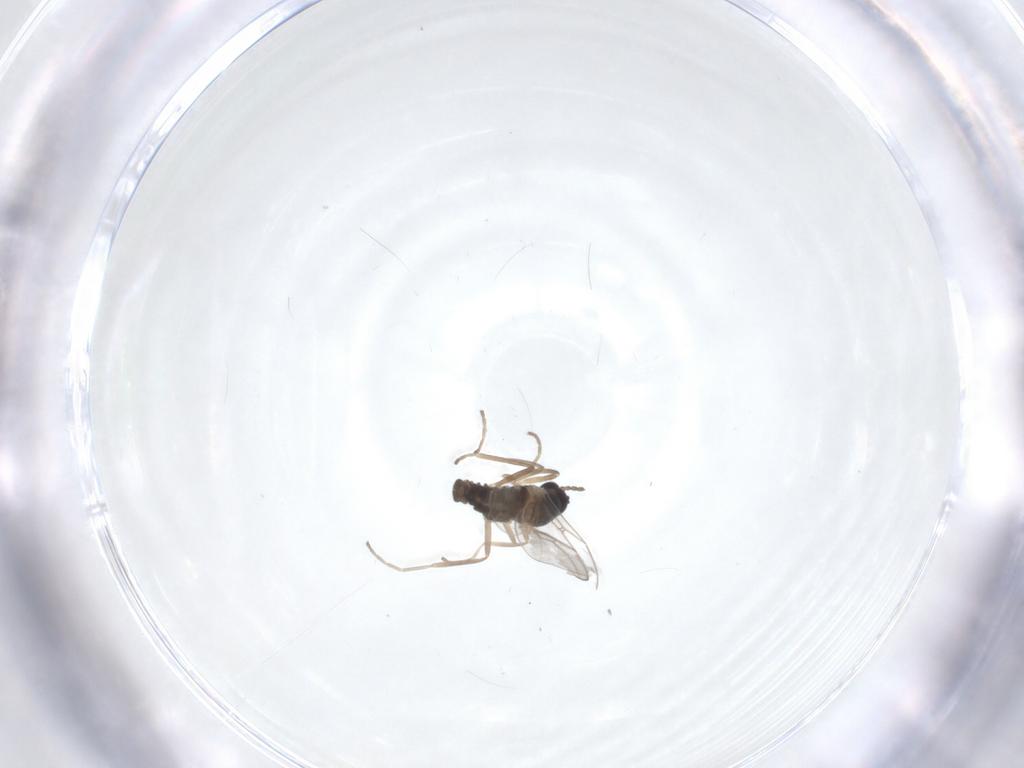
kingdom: Animalia
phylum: Arthropoda
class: Insecta
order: Diptera
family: Cecidomyiidae
